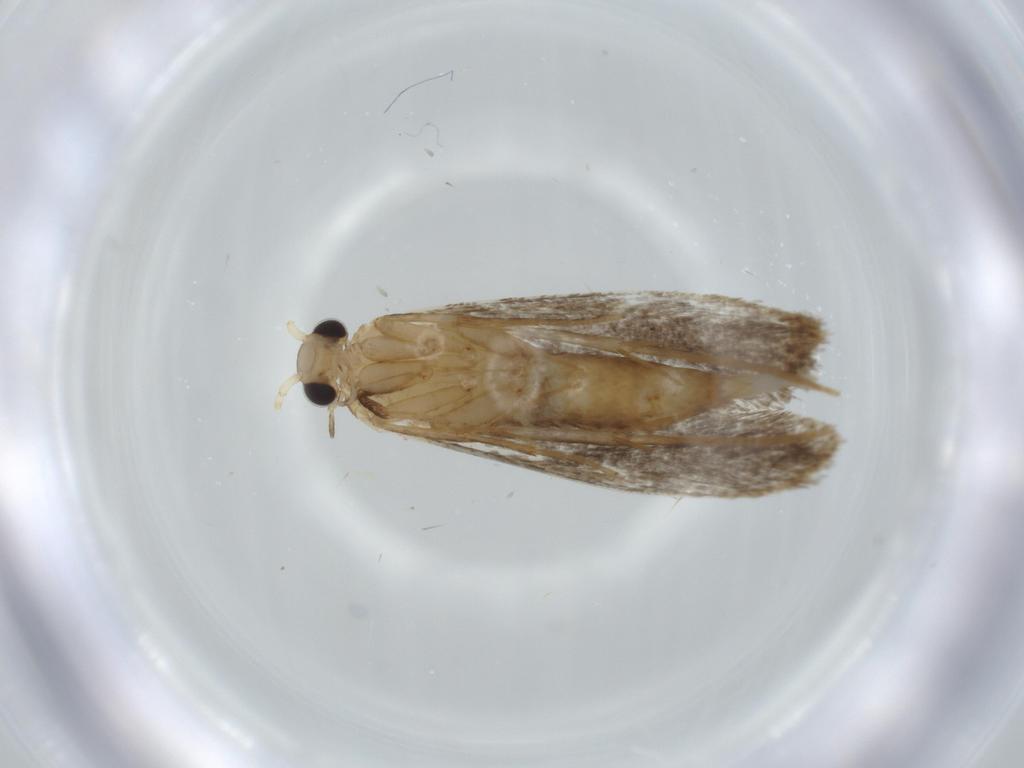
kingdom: Animalia
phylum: Arthropoda
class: Insecta
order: Lepidoptera
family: Tineidae
